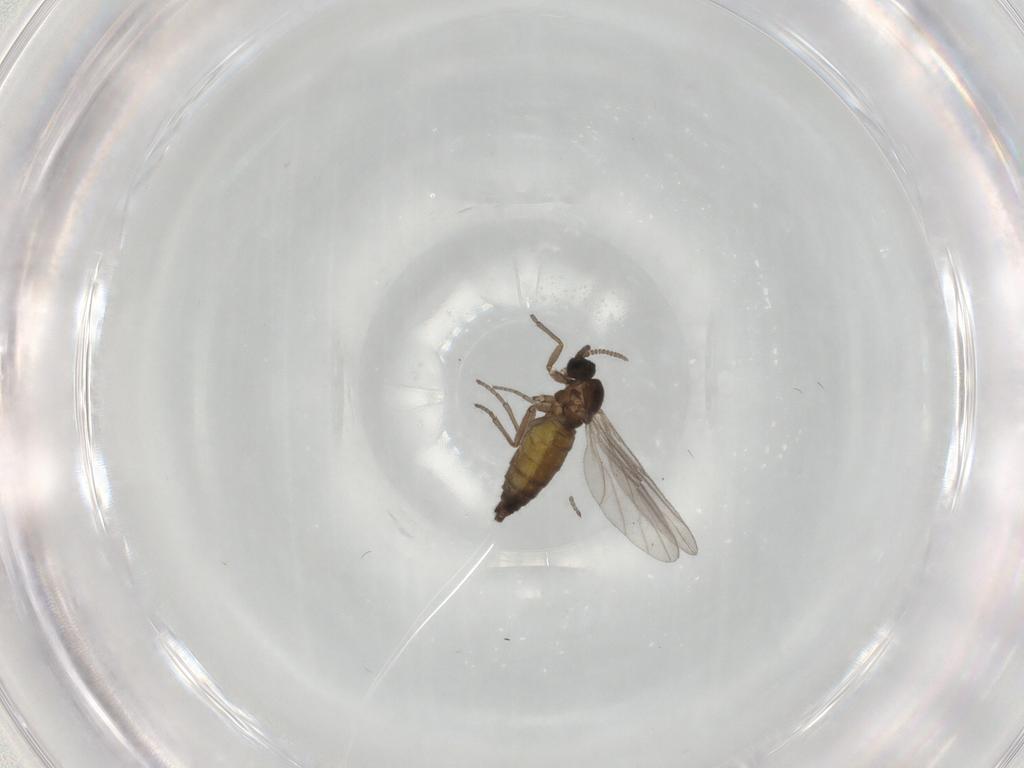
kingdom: Animalia
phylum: Arthropoda
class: Insecta
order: Diptera
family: Sciaridae
